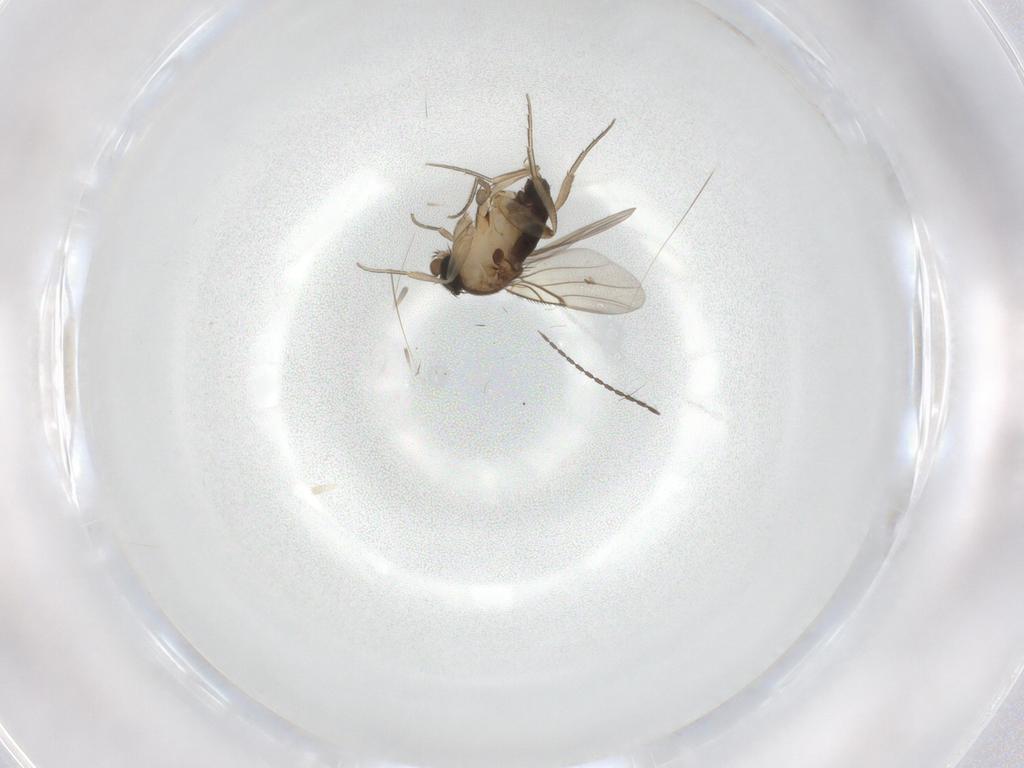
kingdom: Animalia
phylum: Arthropoda
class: Insecta
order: Diptera
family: Phoridae
